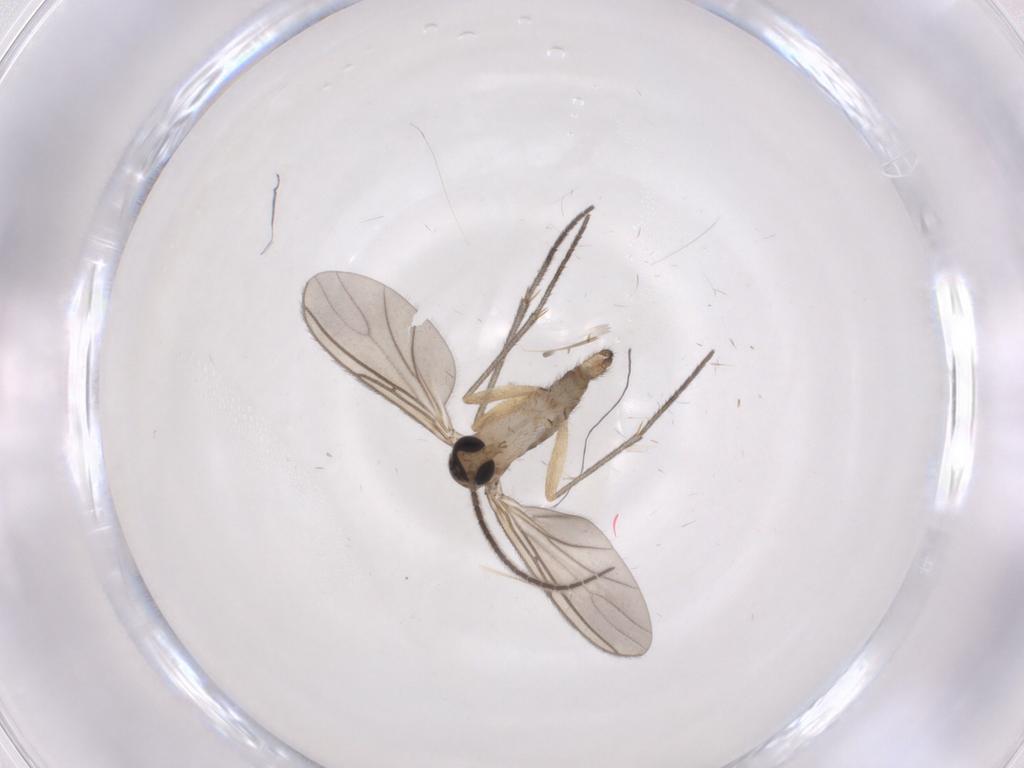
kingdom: Animalia
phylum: Arthropoda
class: Insecta
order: Diptera
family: Sciaridae
